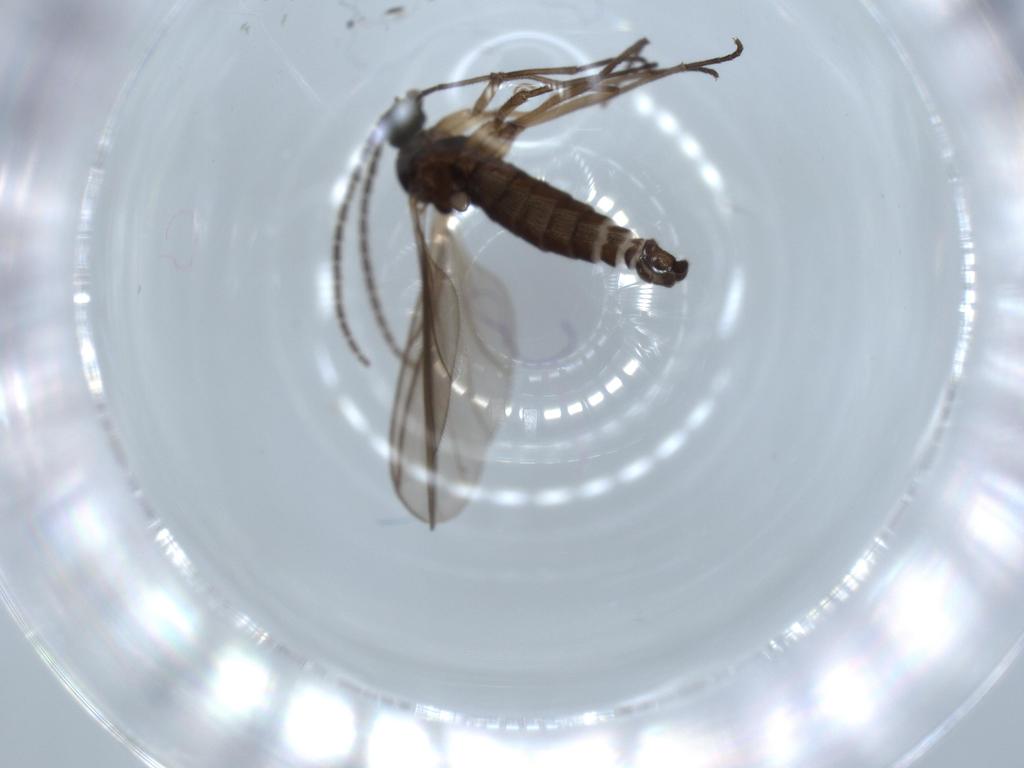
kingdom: Animalia
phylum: Arthropoda
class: Insecta
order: Diptera
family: Sciaridae
